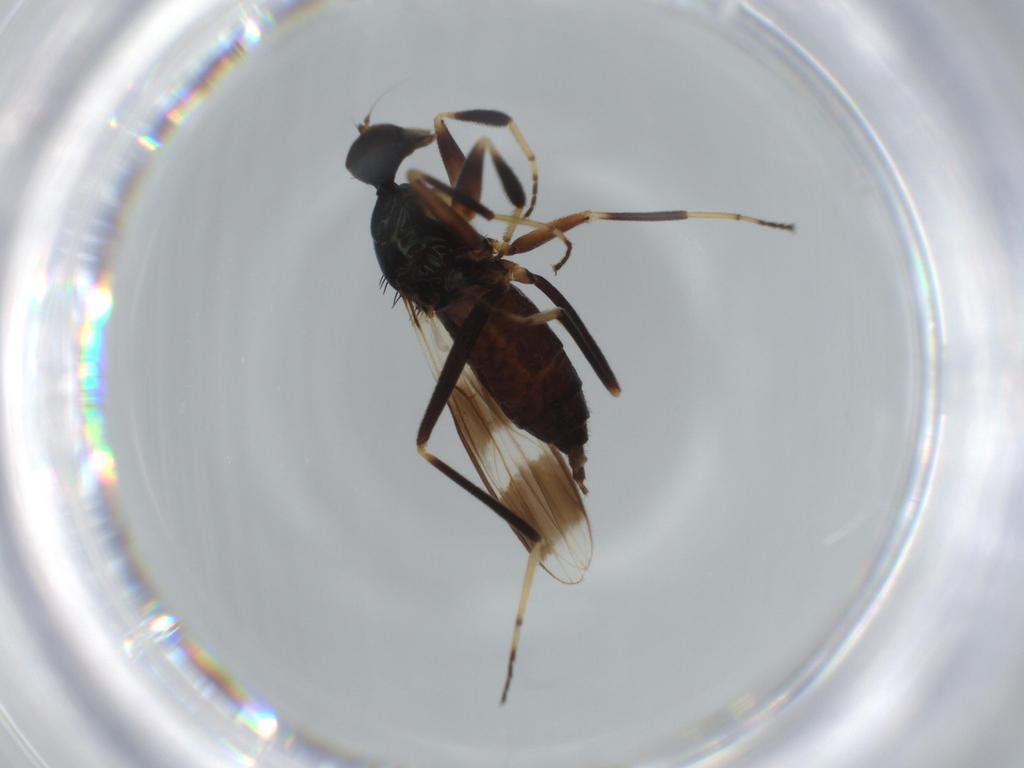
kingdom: Animalia
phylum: Arthropoda
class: Insecta
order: Diptera
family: Hybotidae
